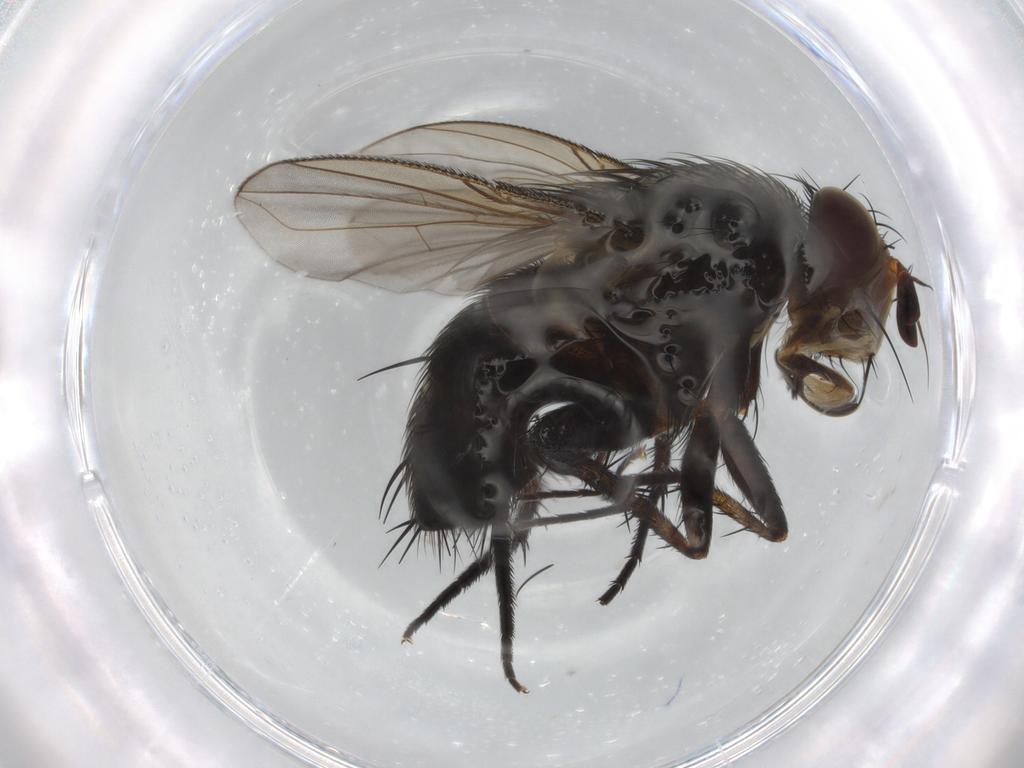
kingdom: Animalia
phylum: Arthropoda
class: Insecta
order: Diptera
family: Tachinidae
